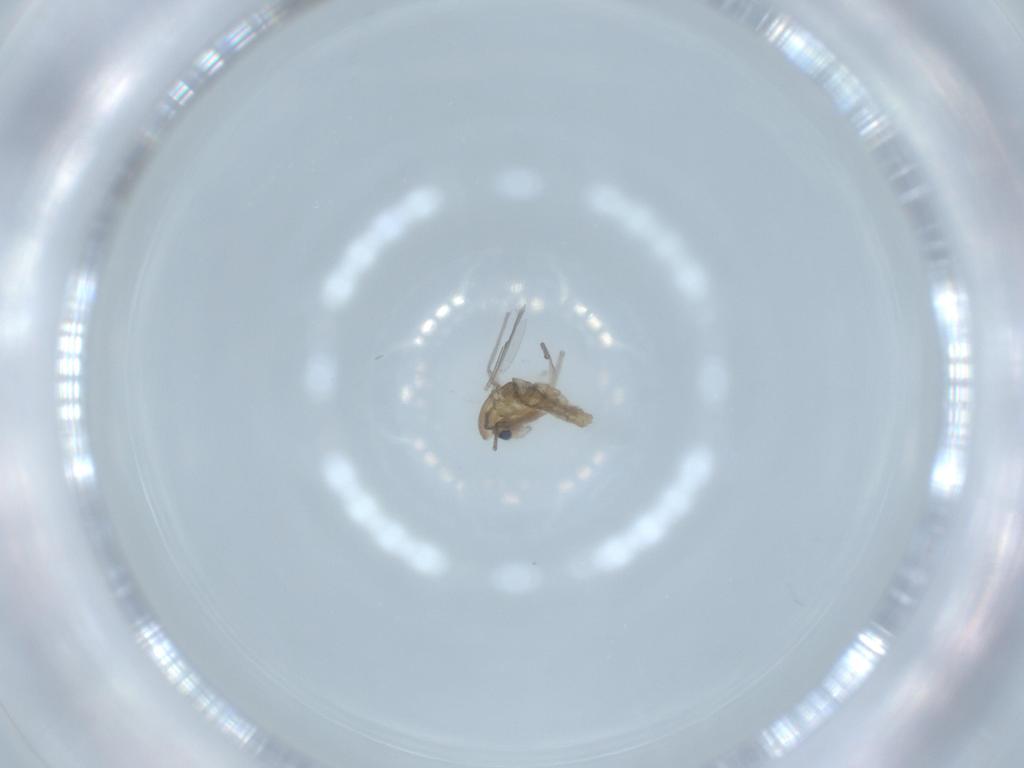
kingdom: Animalia
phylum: Arthropoda
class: Insecta
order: Diptera
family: Chironomidae
